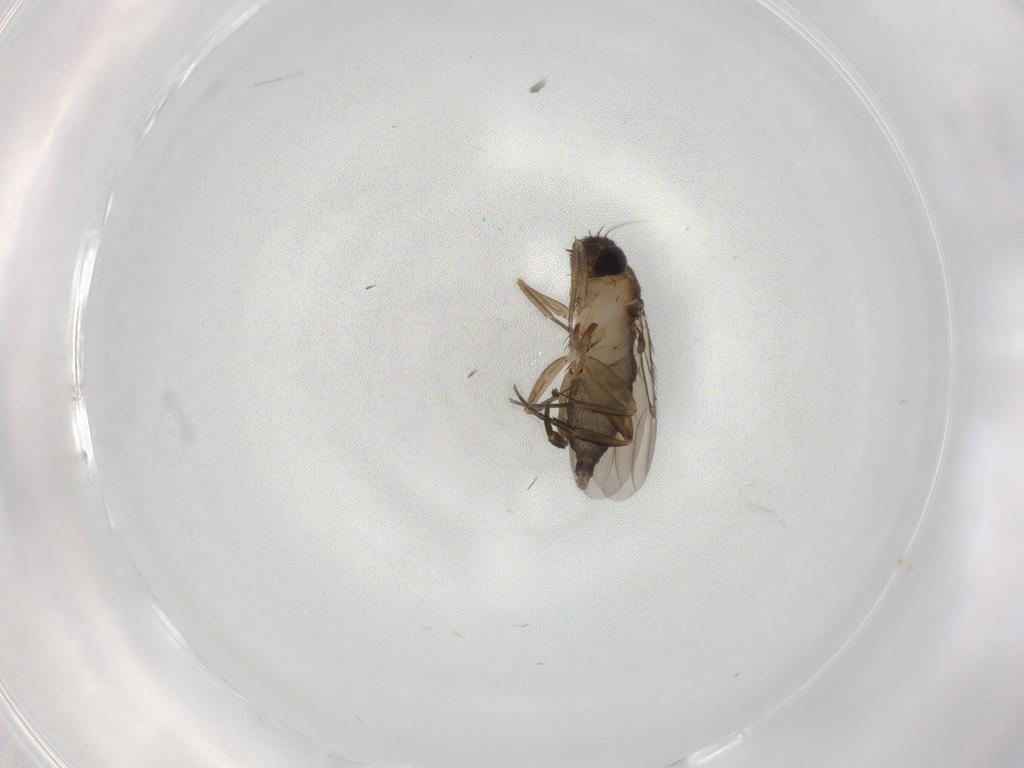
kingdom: Animalia
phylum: Arthropoda
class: Insecta
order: Diptera
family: Phoridae
